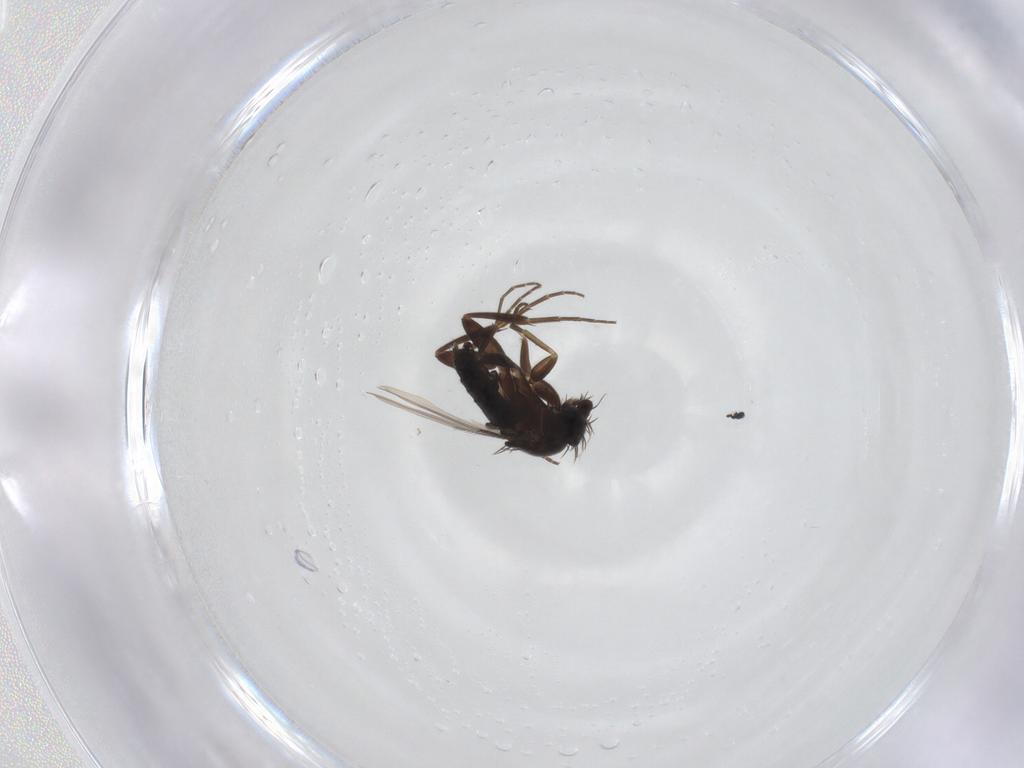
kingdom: Animalia
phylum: Arthropoda
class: Insecta
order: Diptera
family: Phoridae
